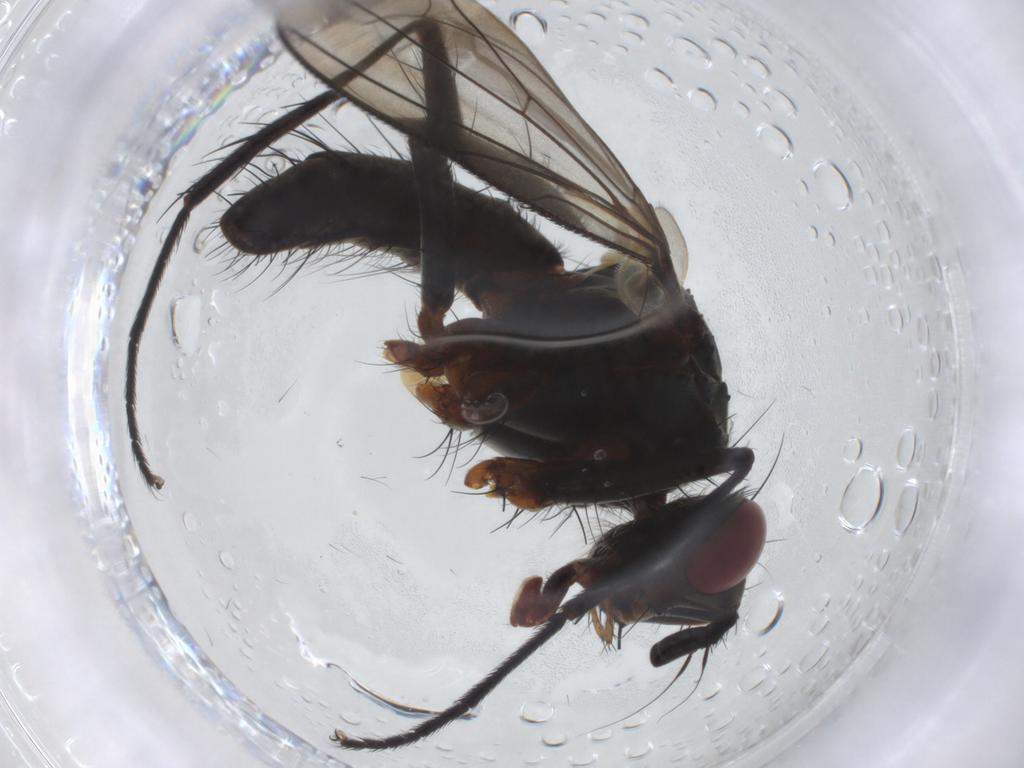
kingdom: Animalia
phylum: Arthropoda
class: Insecta
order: Diptera
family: Tachinidae
